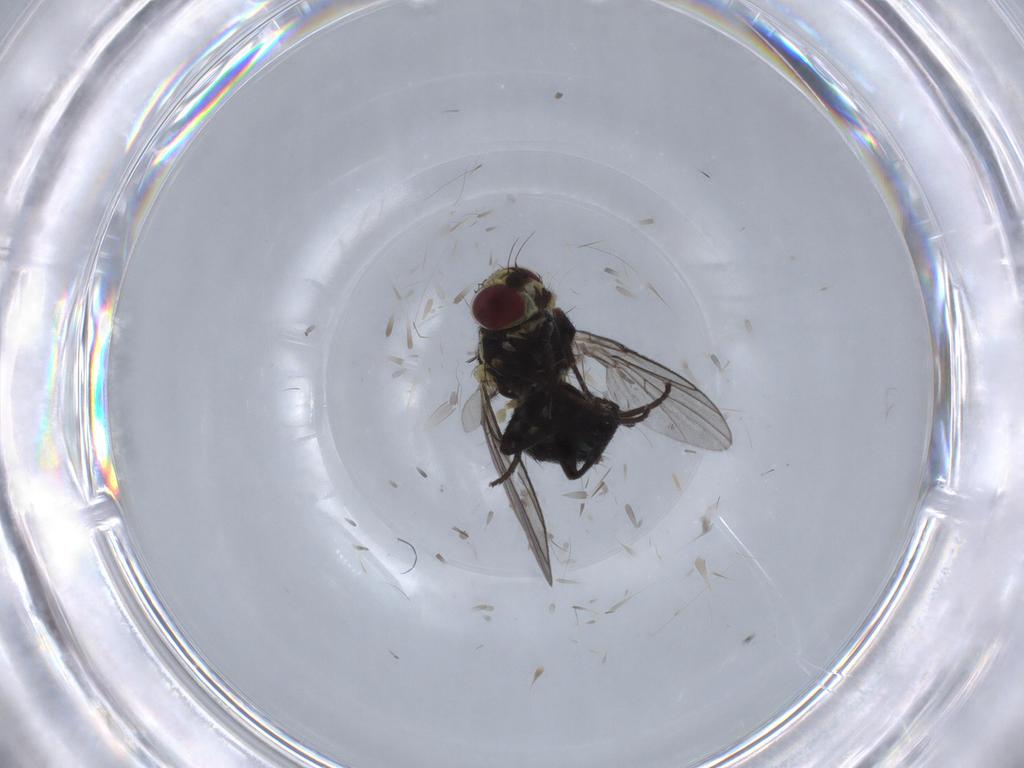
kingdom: Animalia
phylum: Arthropoda
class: Insecta
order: Diptera
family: Agromyzidae
